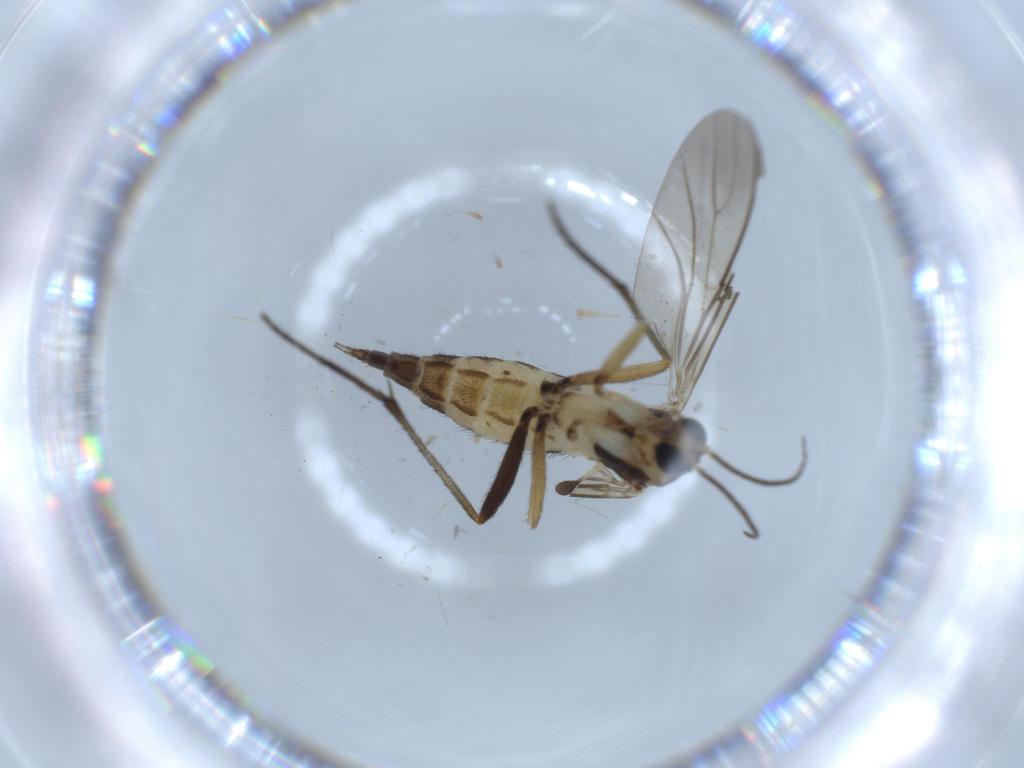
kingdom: Animalia
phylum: Arthropoda
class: Insecta
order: Diptera
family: Sciaridae
